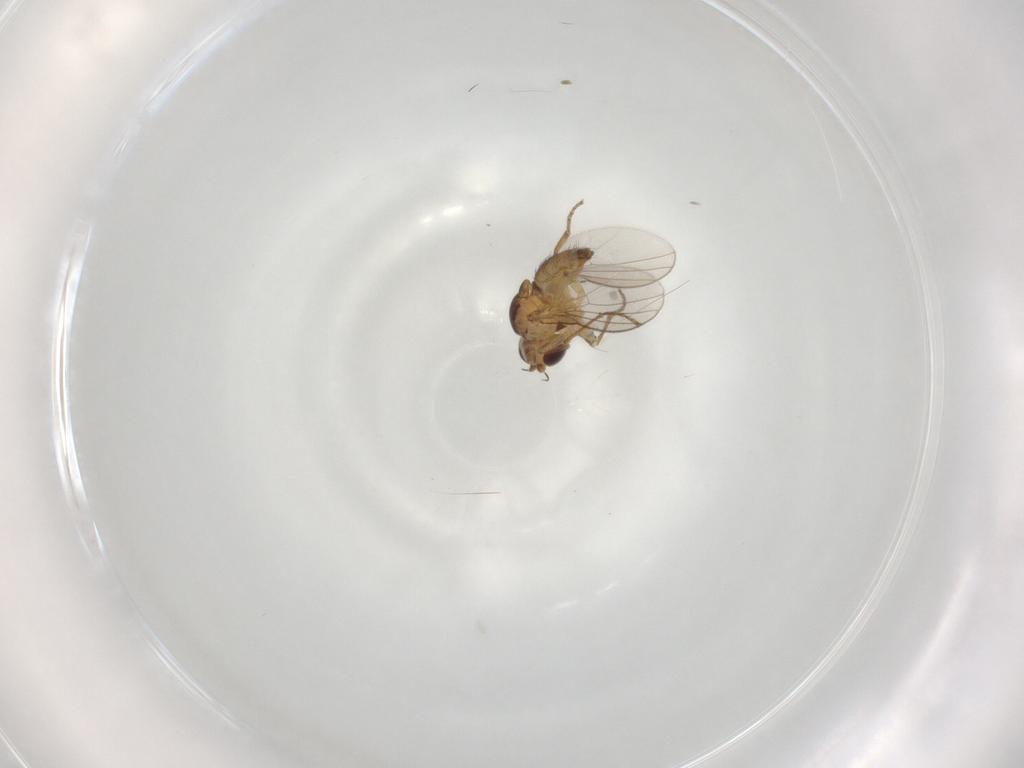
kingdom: Animalia
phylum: Arthropoda
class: Insecta
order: Diptera
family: Agromyzidae
